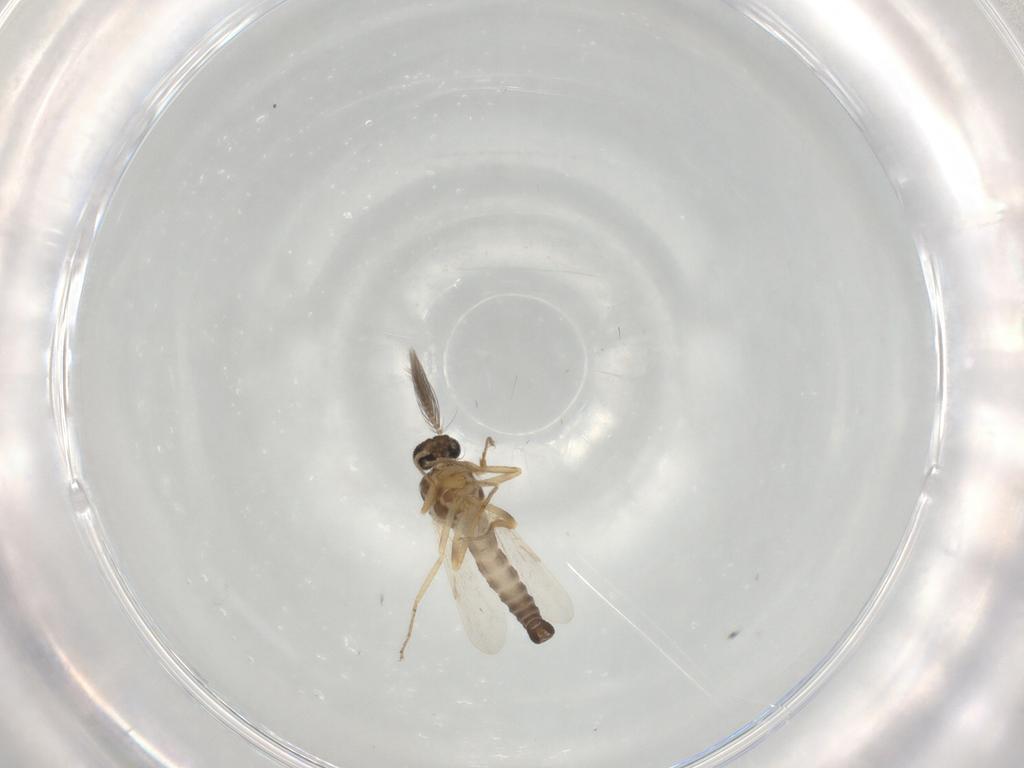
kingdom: Animalia
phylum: Arthropoda
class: Insecta
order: Diptera
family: Ceratopogonidae
